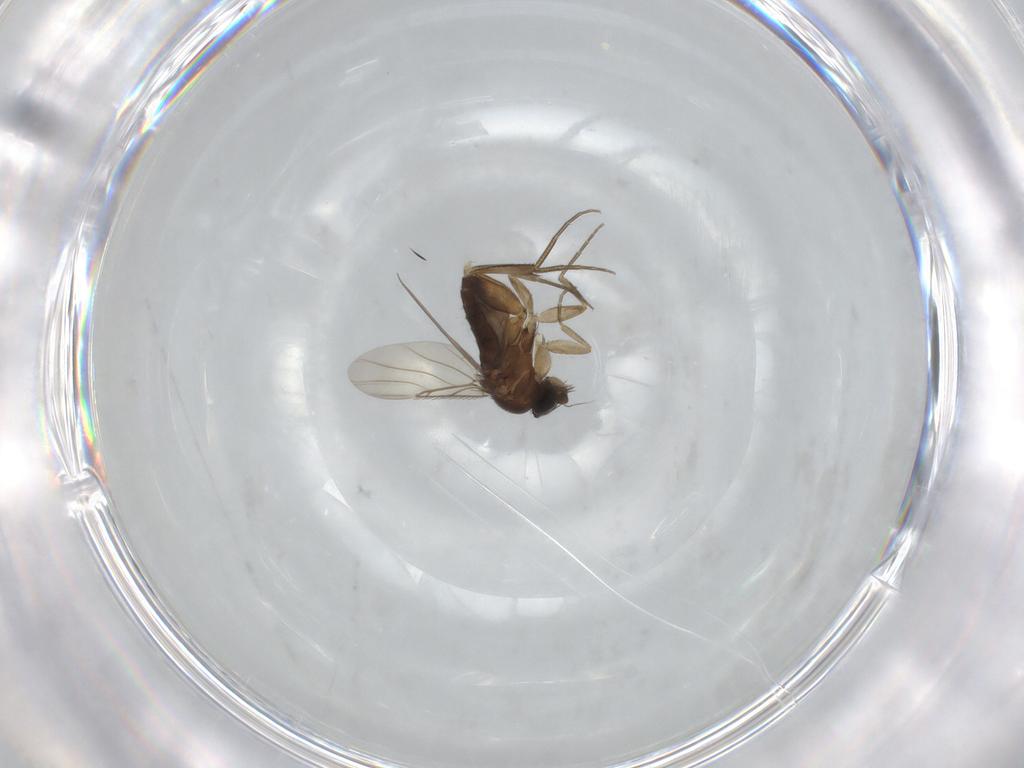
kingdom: Animalia
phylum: Arthropoda
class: Insecta
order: Diptera
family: Phoridae
